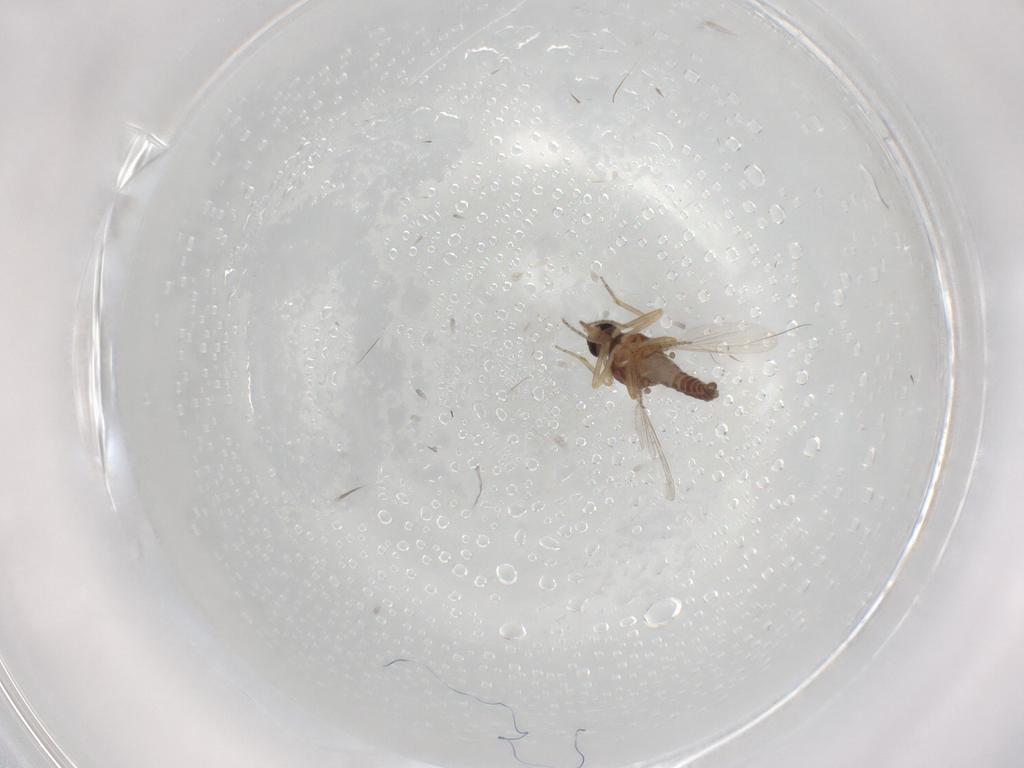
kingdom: Animalia
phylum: Arthropoda
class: Insecta
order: Diptera
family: Ceratopogonidae
